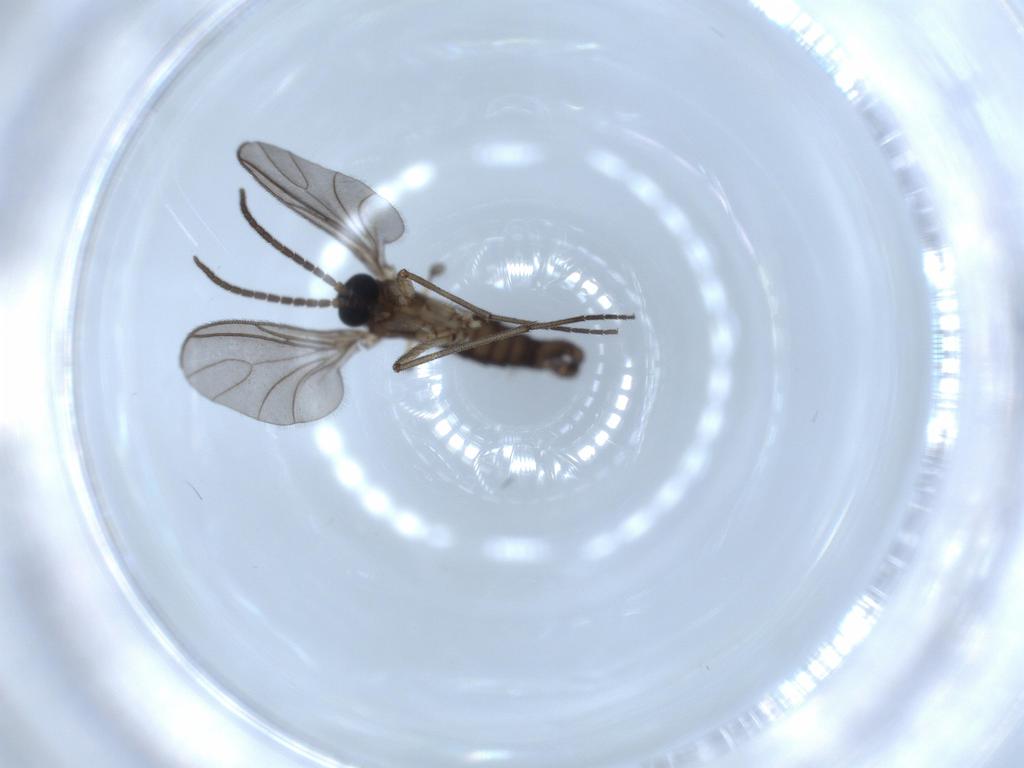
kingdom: Animalia
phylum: Arthropoda
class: Insecta
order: Diptera
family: Sciaridae
